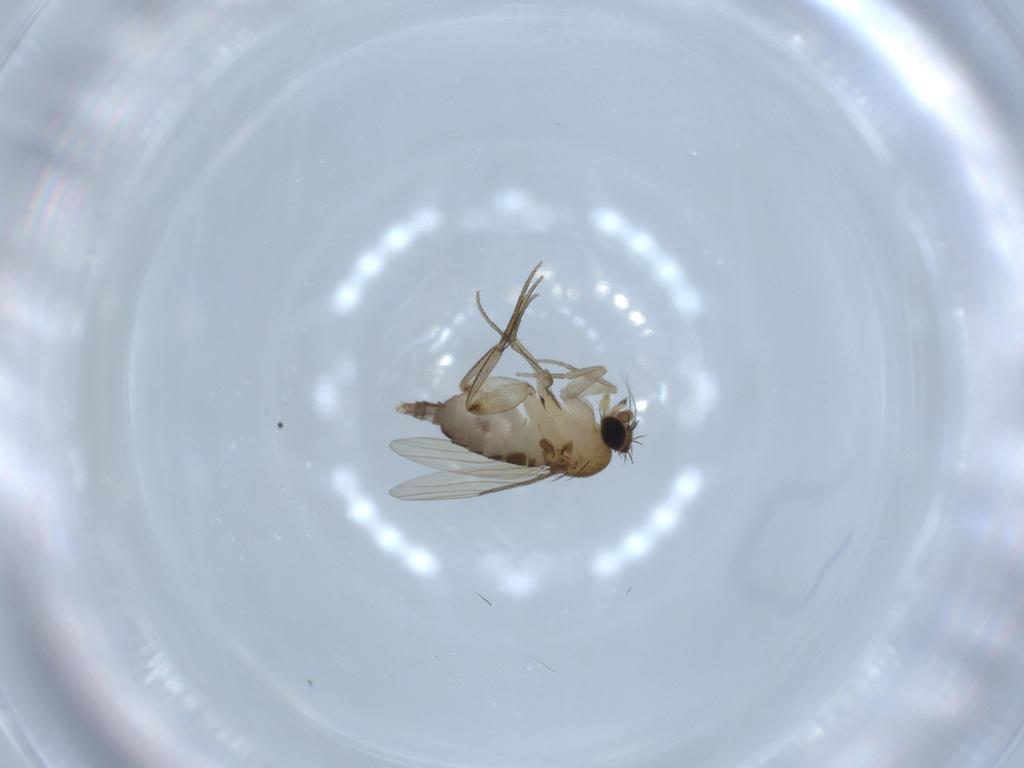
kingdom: Animalia
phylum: Arthropoda
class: Insecta
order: Diptera
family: Phoridae
